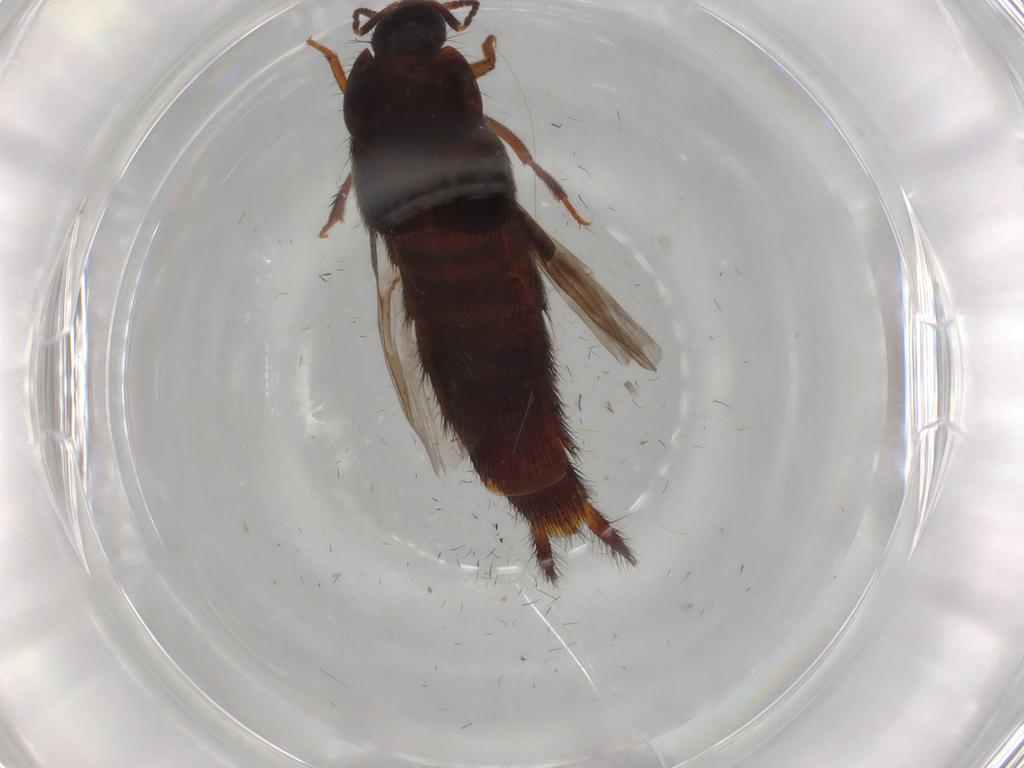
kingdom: Animalia
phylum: Arthropoda
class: Insecta
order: Coleoptera
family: Staphylinidae
